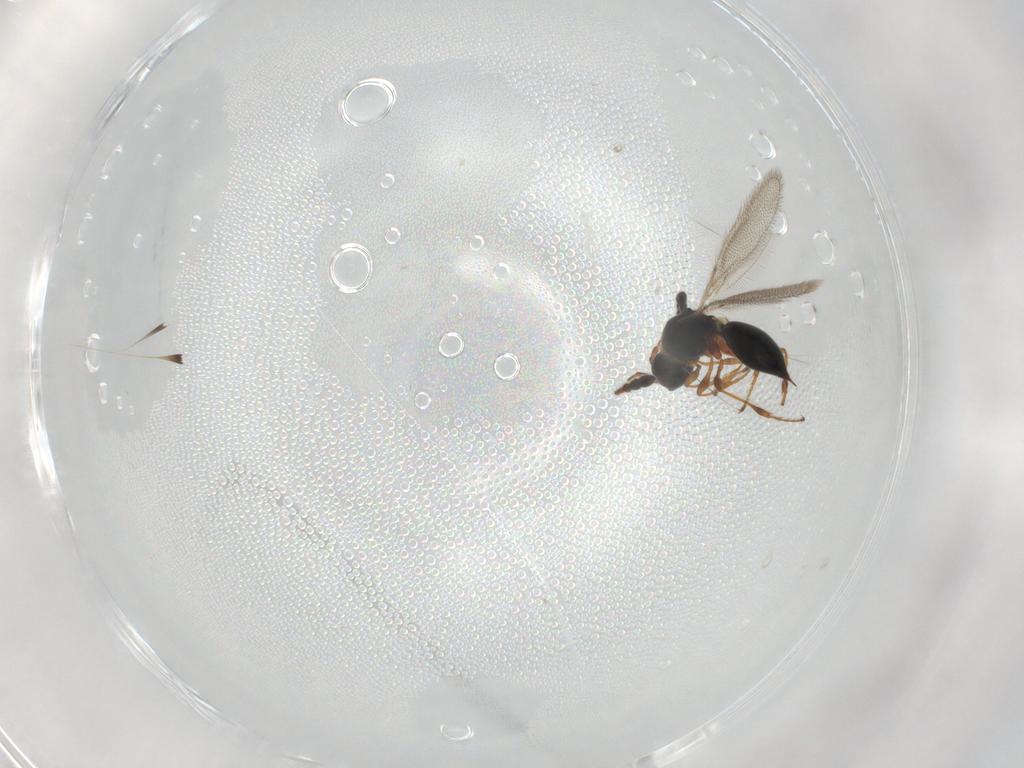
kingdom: Animalia
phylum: Arthropoda
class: Insecta
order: Hymenoptera
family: Diapriidae
